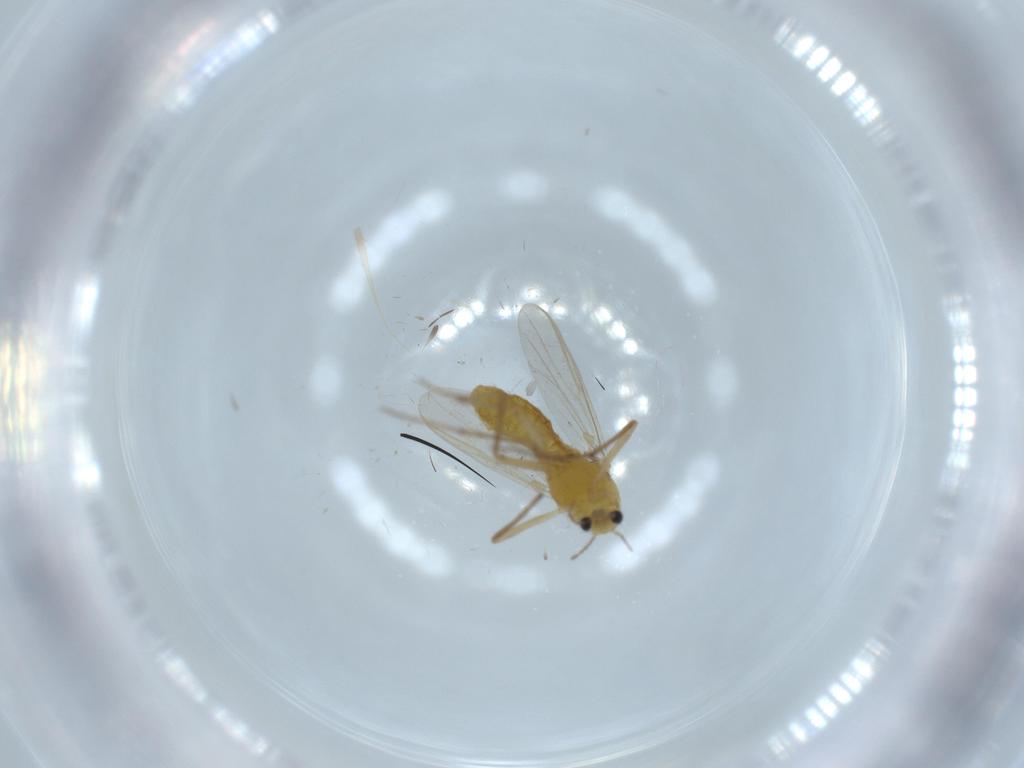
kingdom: Animalia
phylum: Arthropoda
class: Insecta
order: Diptera
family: Chironomidae
